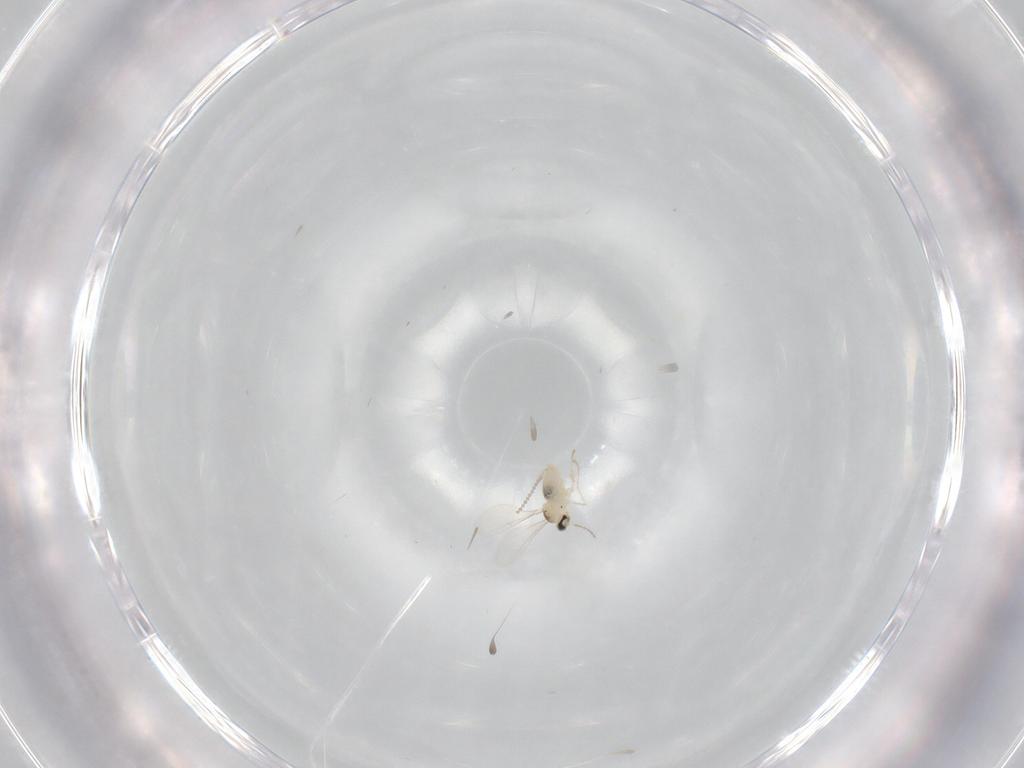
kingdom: Animalia
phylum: Arthropoda
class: Insecta
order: Diptera
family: Cecidomyiidae
